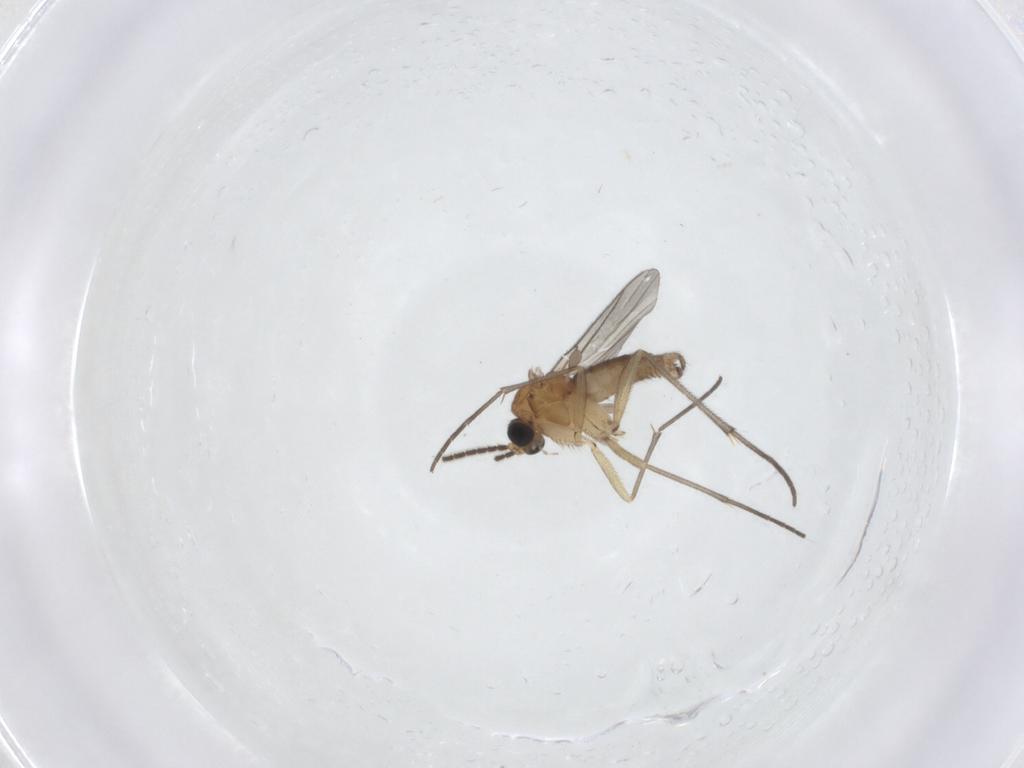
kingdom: Animalia
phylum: Arthropoda
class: Insecta
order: Diptera
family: Sciaridae
